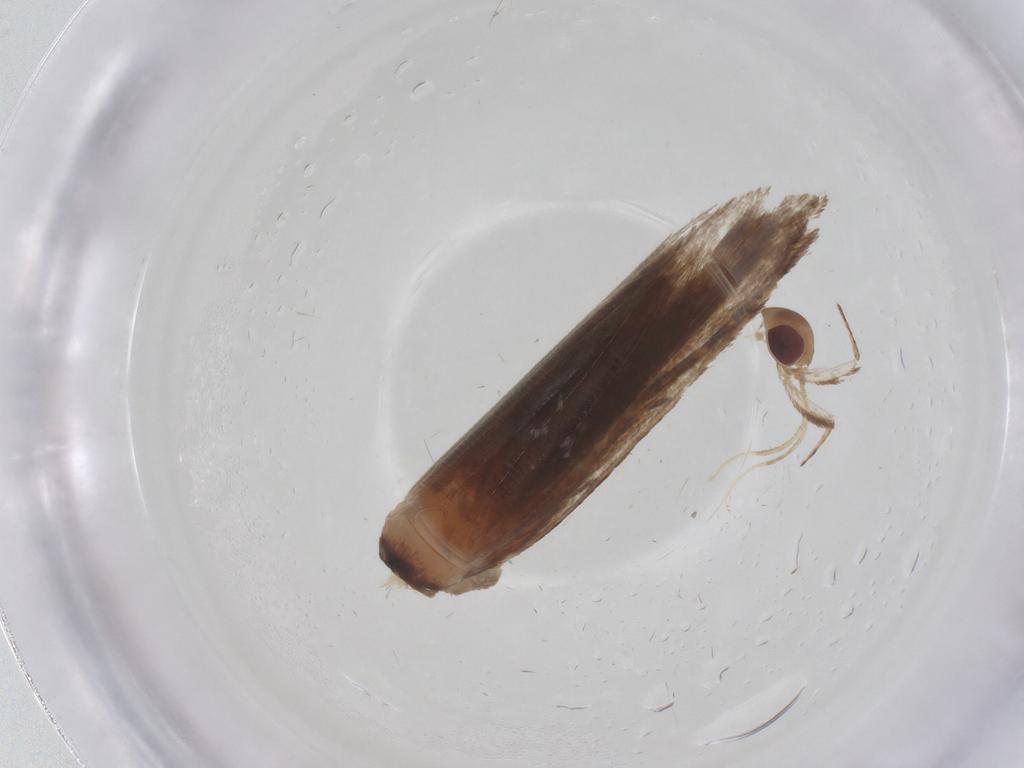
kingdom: Animalia
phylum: Arthropoda
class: Insecta
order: Lepidoptera
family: Gelechiidae
